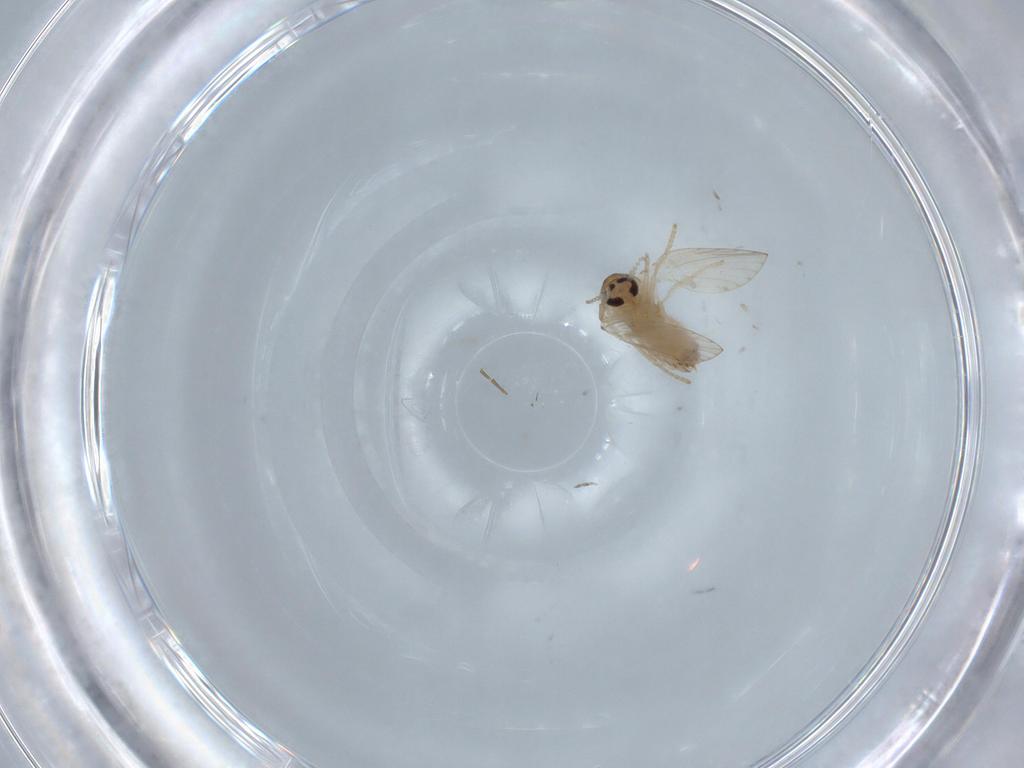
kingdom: Animalia
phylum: Arthropoda
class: Insecta
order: Diptera
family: Psychodidae
